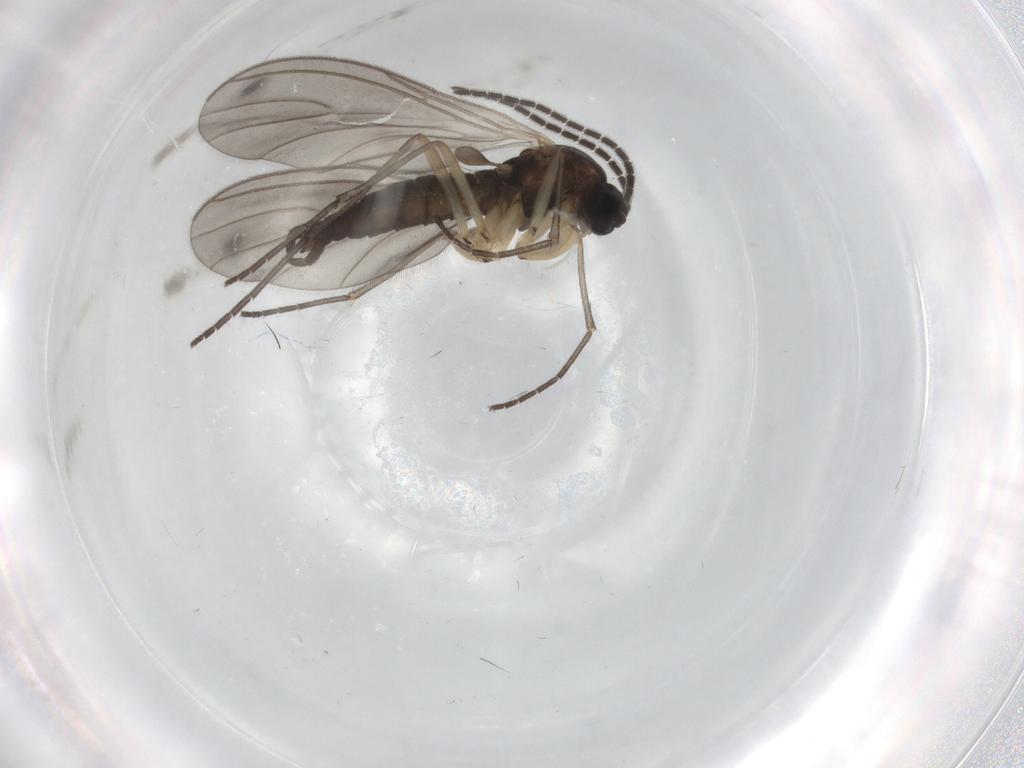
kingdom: Animalia
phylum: Arthropoda
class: Insecta
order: Diptera
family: Sciaridae
